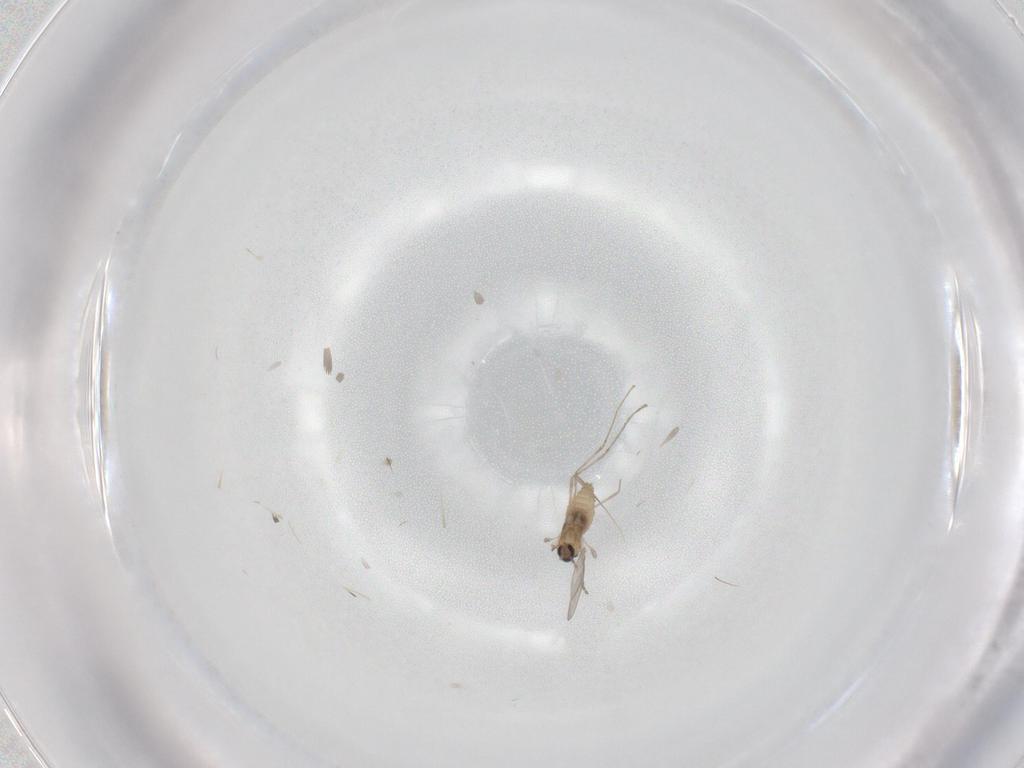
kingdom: Animalia
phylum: Arthropoda
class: Insecta
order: Diptera
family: Cecidomyiidae
